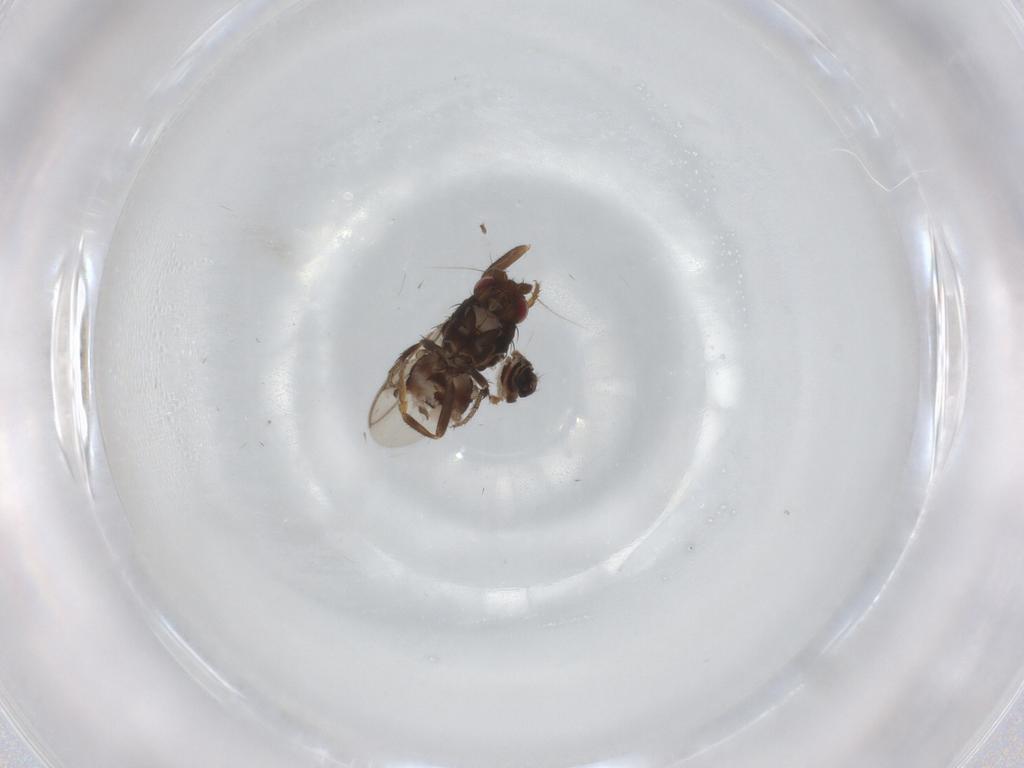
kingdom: Animalia
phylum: Arthropoda
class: Insecta
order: Diptera
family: Sphaeroceridae
